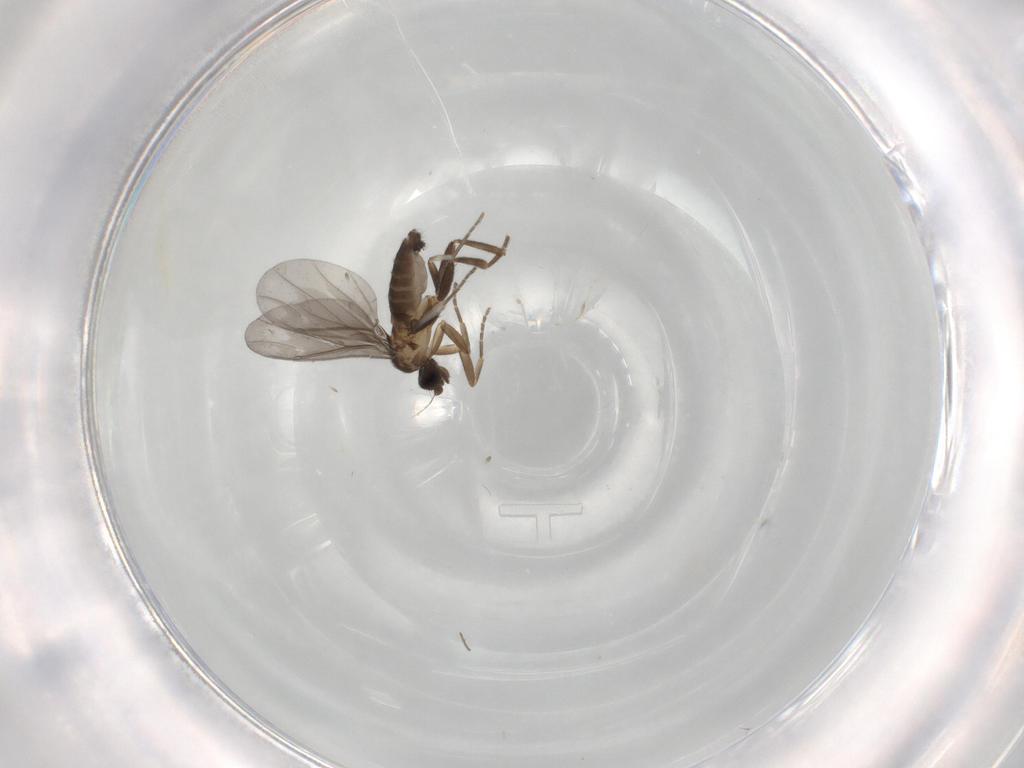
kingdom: Animalia
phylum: Arthropoda
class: Insecta
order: Diptera
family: Phoridae
